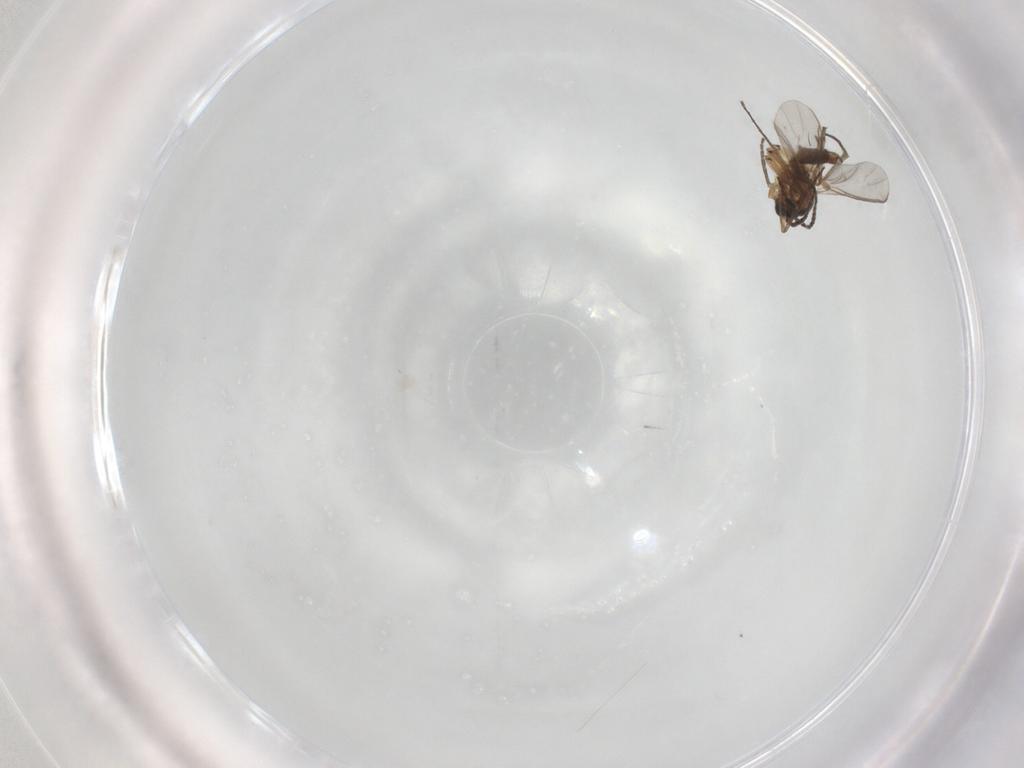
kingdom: Animalia
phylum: Arthropoda
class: Insecta
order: Diptera
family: Sciaridae
